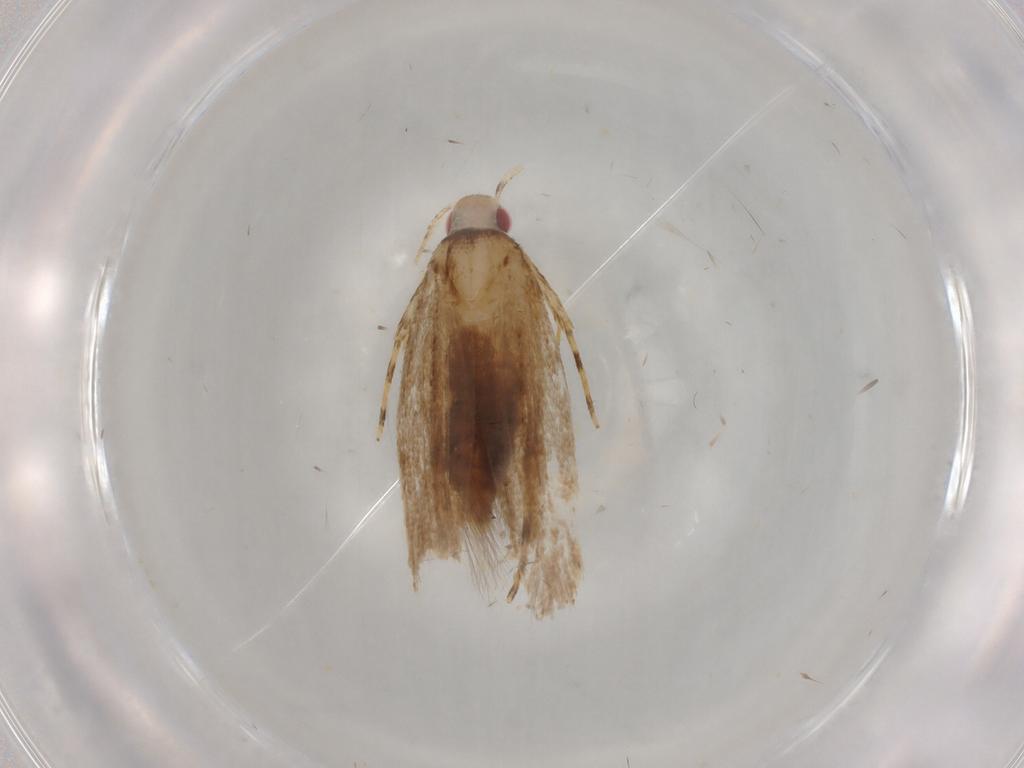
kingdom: Animalia
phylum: Arthropoda
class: Insecta
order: Lepidoptera
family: Cosmopterigidae
